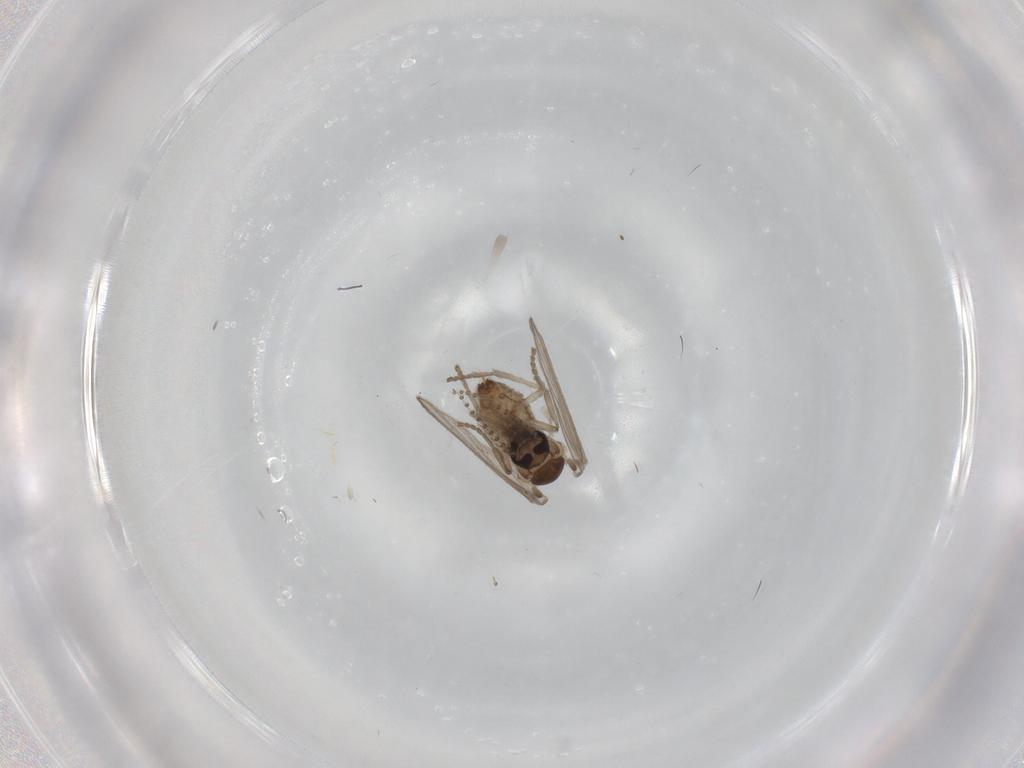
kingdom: Animalia
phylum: Arthropoda
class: Insecta
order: Diptera
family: Psychodidae
